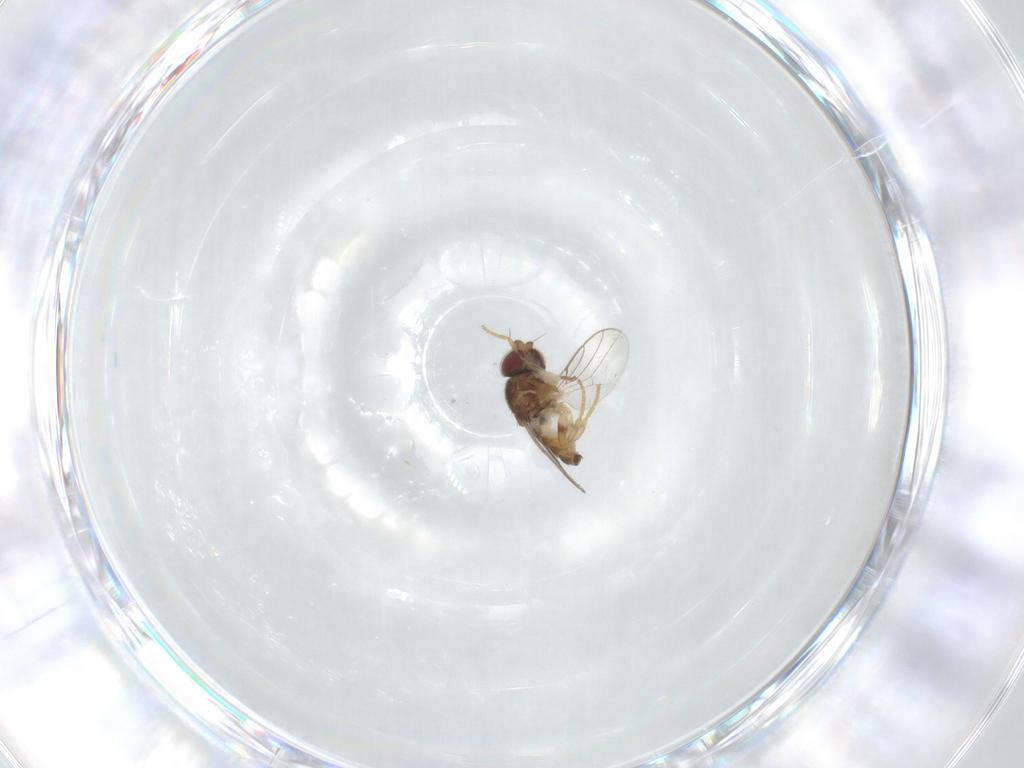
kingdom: Animalia
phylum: Arthropoda
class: Insecta
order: Diptera
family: Chloropidae
